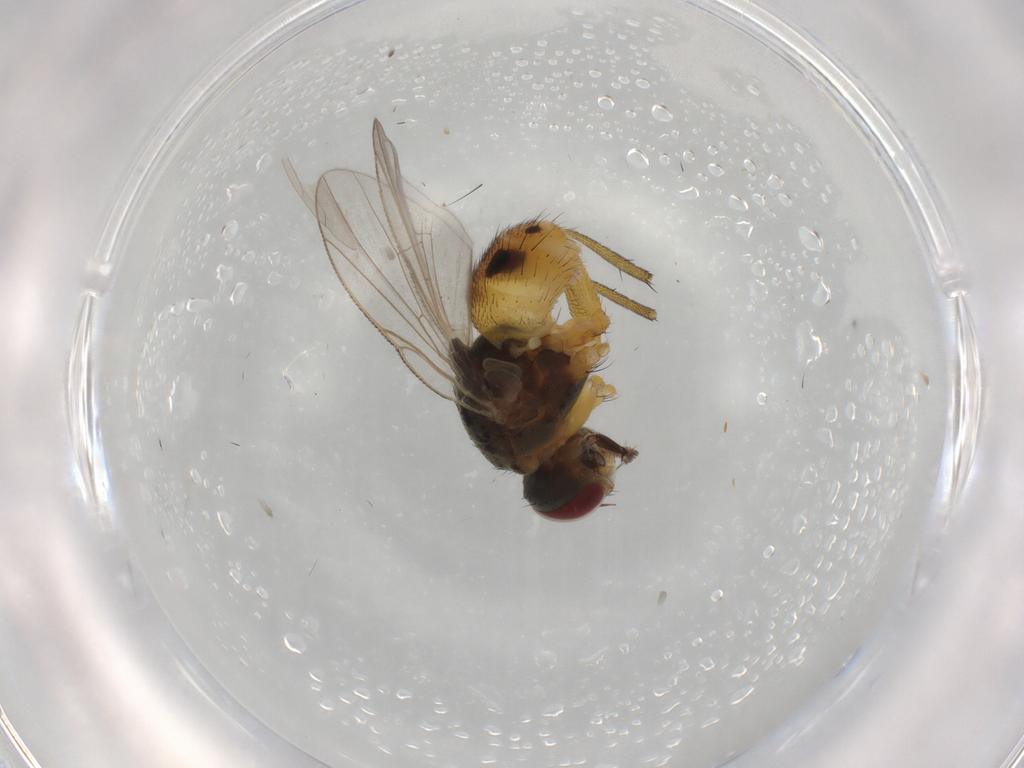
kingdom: Animalia
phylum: Arthropoda
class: Insecta
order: Diptera
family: Muscidae
